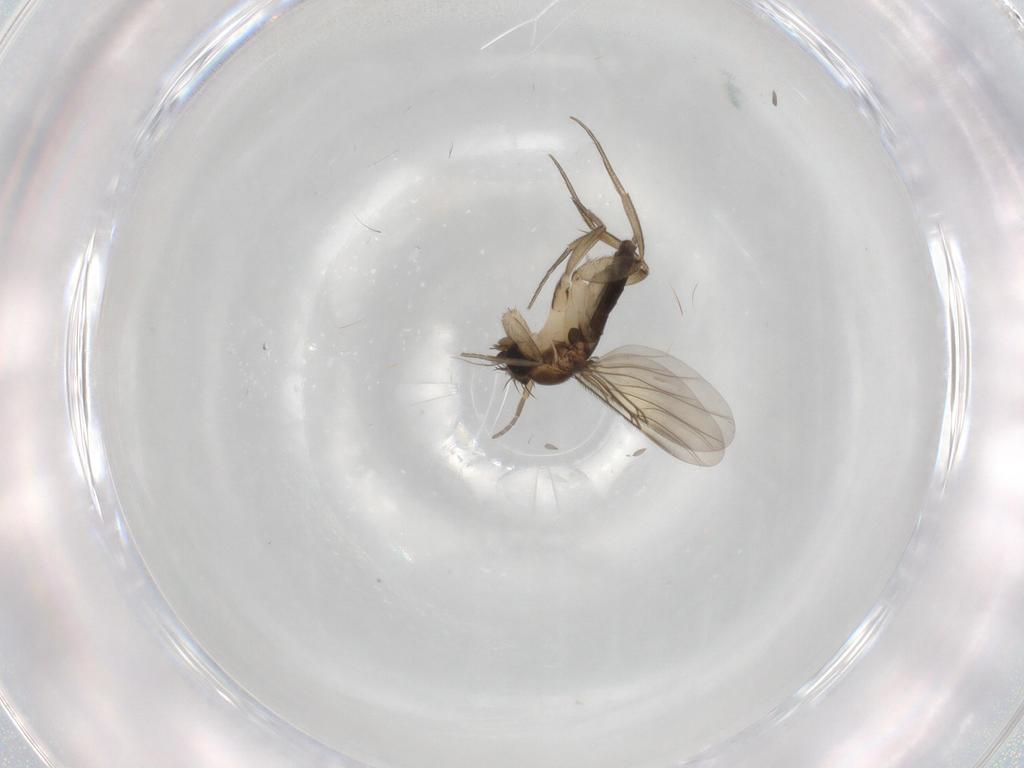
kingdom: Animalia
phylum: Arthropoda
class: Insecta
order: Diptera
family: Phoridae
